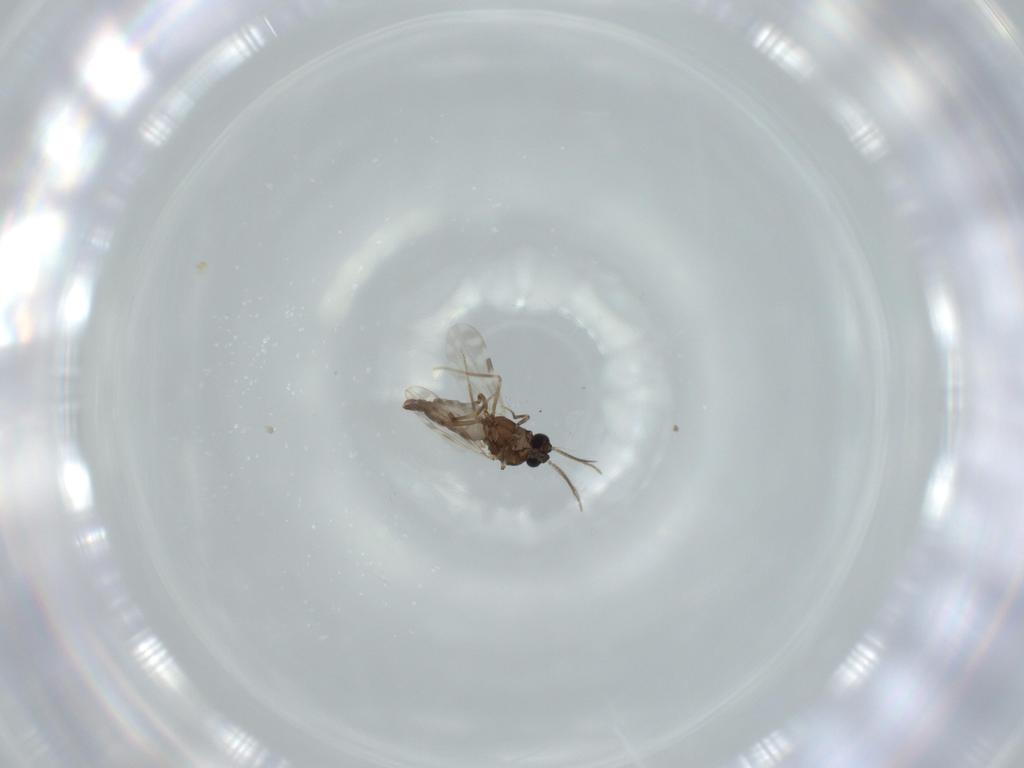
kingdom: Animalia
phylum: Arthropoda
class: Insecta
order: Diptera
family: Ceratopogonidae
